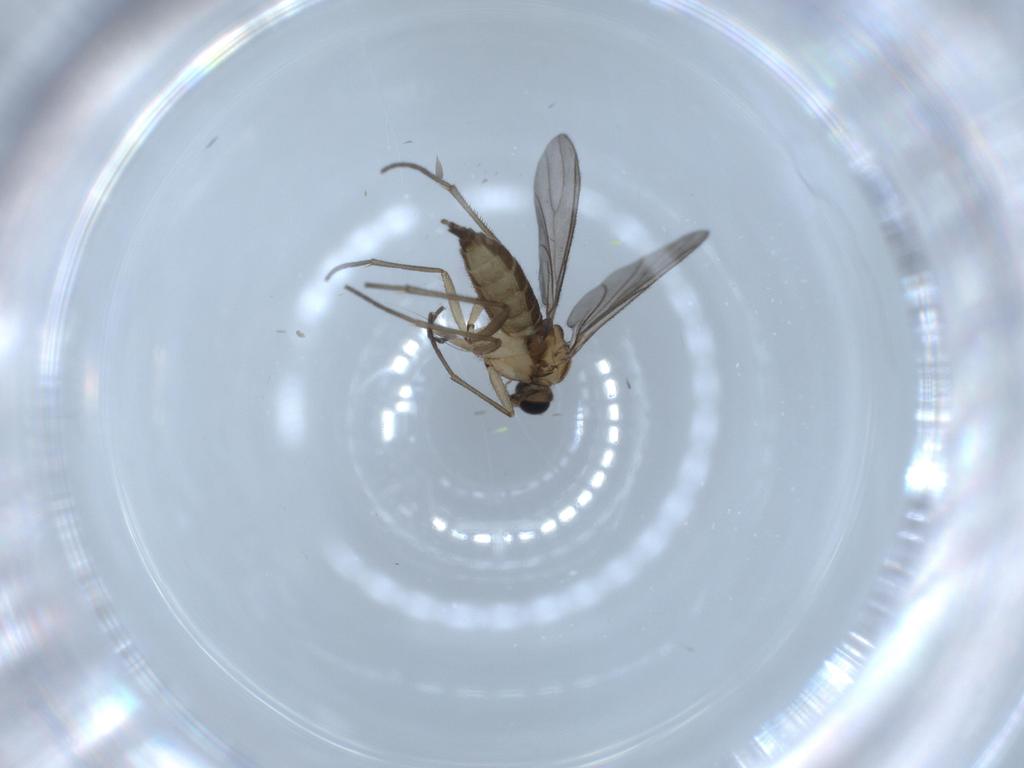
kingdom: Animalia
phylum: Arthropoda
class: Insecta
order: Diptera
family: Sciaridae
